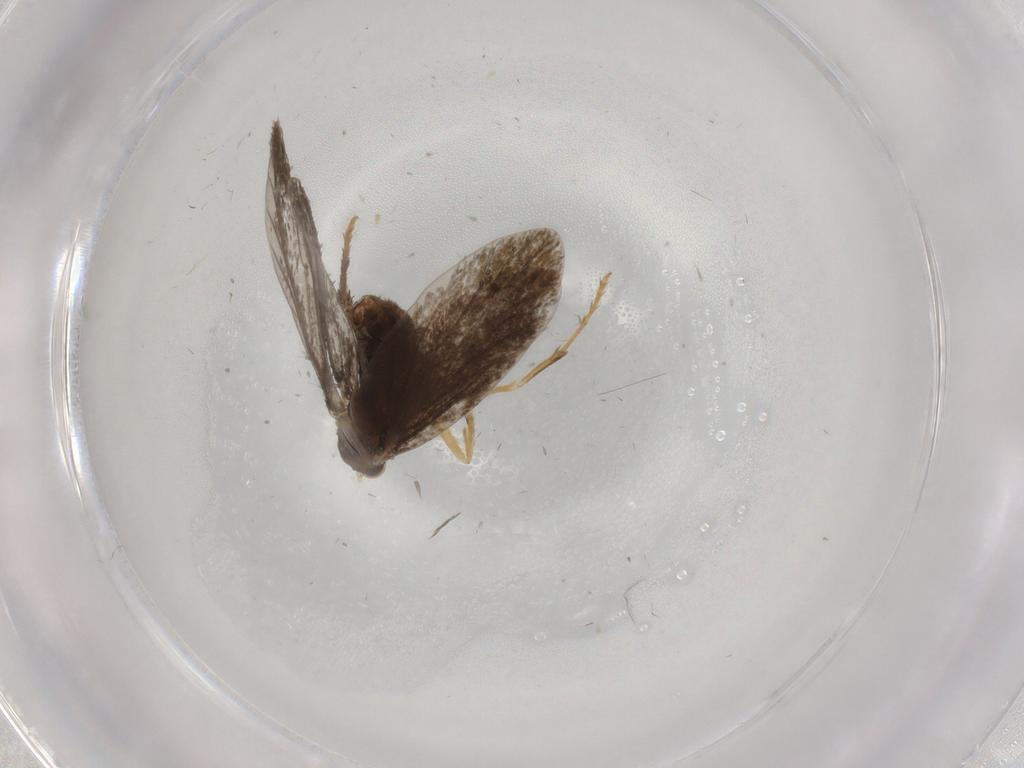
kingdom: Animalia
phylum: Arthropoda
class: Insecta
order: Lepidoptera
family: Micropterigidae
